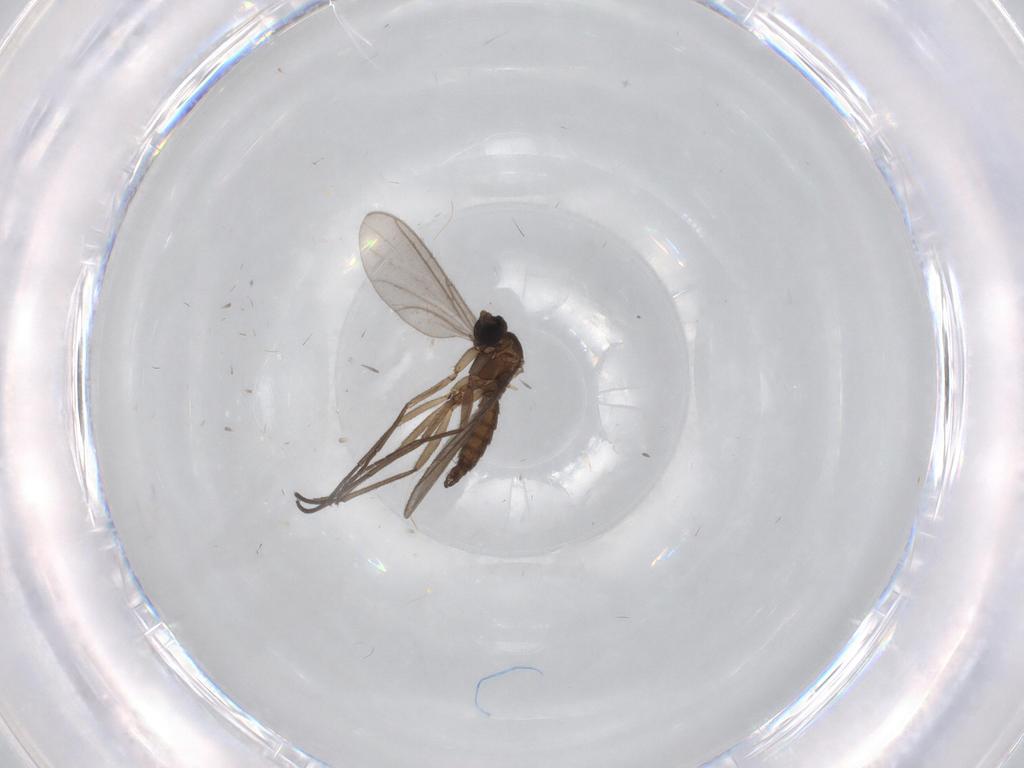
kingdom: Animalia
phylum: Arthropoda
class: Insecta
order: Diptera
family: Sciaridae
